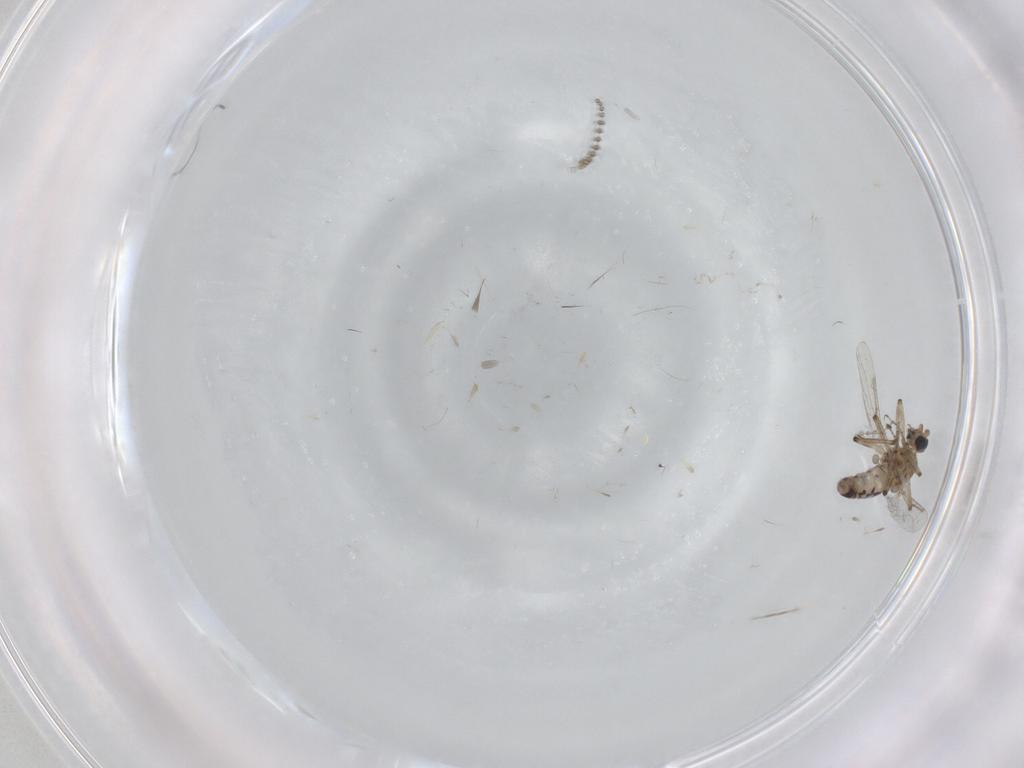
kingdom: Animalia
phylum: Arthropoda
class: Insecta
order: Diptera
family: Ceratopogonidae
